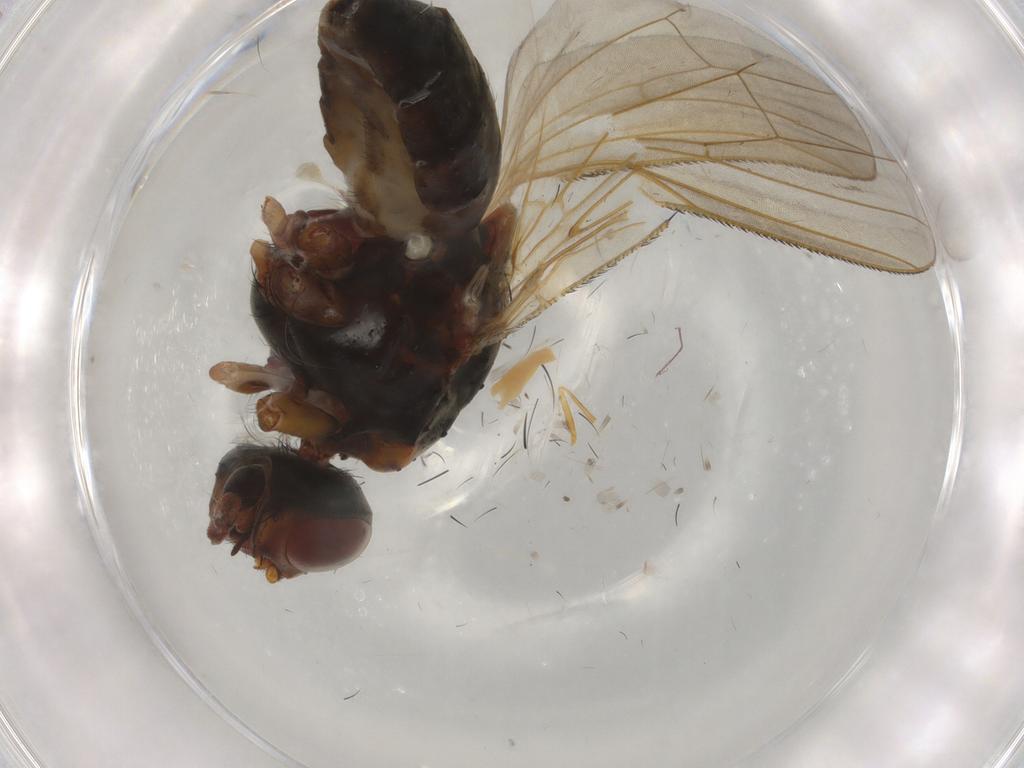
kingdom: Animalia
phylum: Arthropoda
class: Insecta
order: Diptera
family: Anthomyiidae
